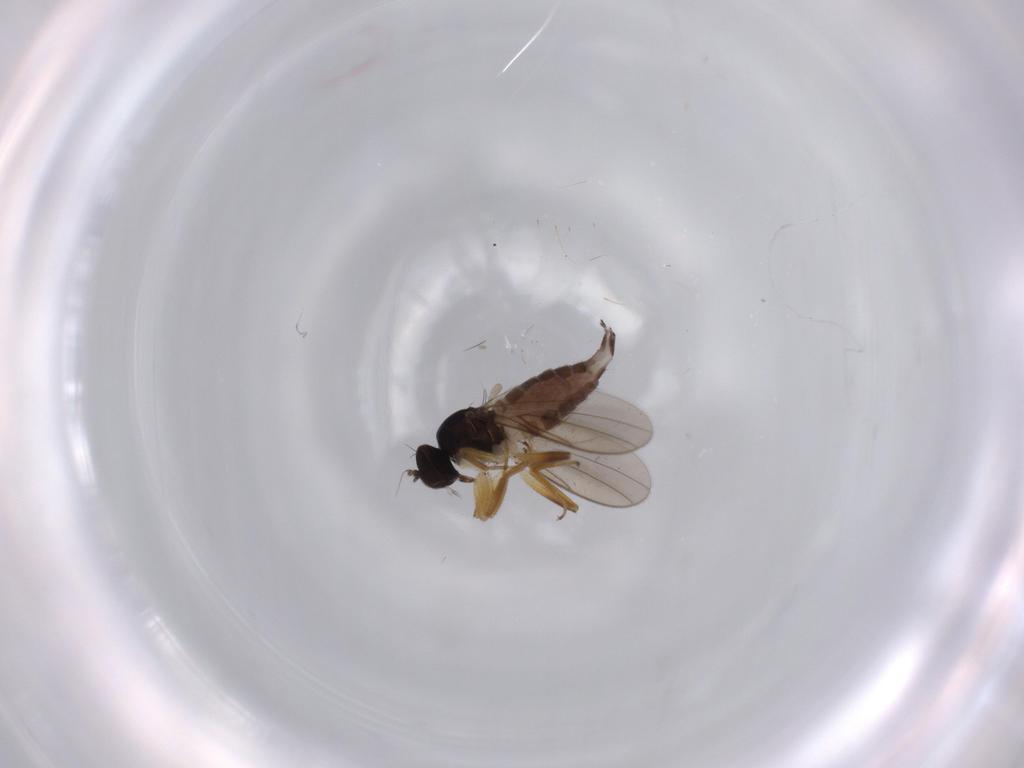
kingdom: Animalia
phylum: Arthropoda
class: Insecta
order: Diptera
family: Hybotidae
